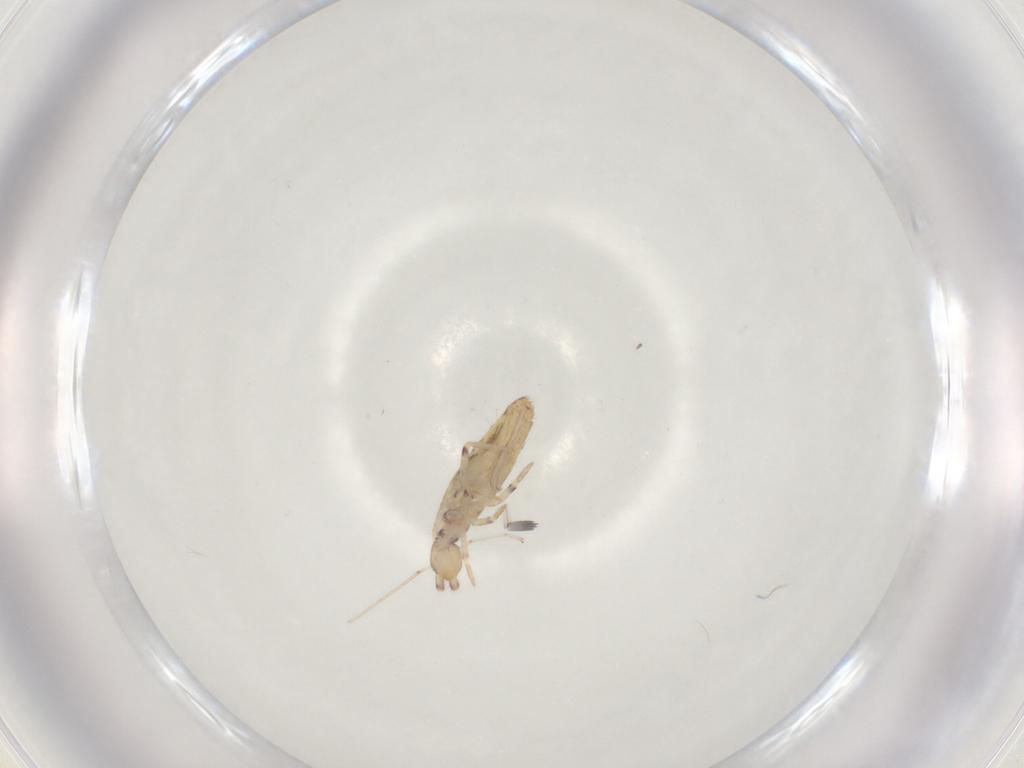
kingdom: Animalia
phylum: Arthropoda
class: Collembola
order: Entomobryomorpha
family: Entomobryidae
